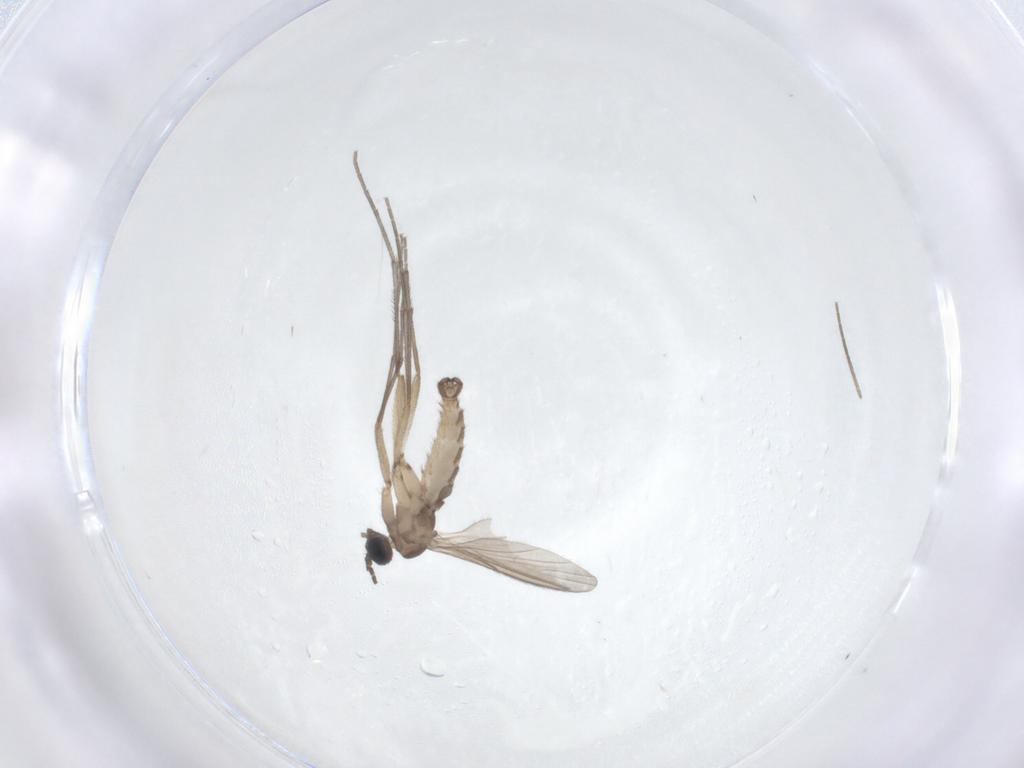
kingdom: Animalia
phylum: Arthropoda
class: Insecta
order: Diptera
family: Sciaridae
